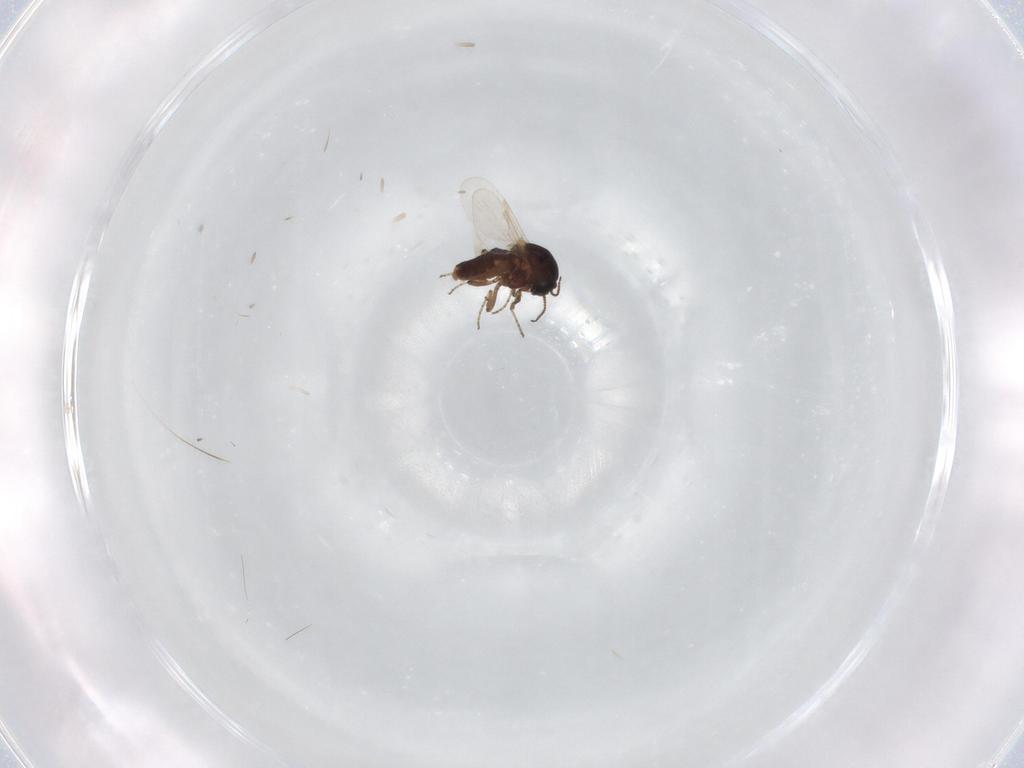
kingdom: Animalia
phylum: Arthropoda
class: Insecta
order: Diptera
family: Ceratopogonidae
